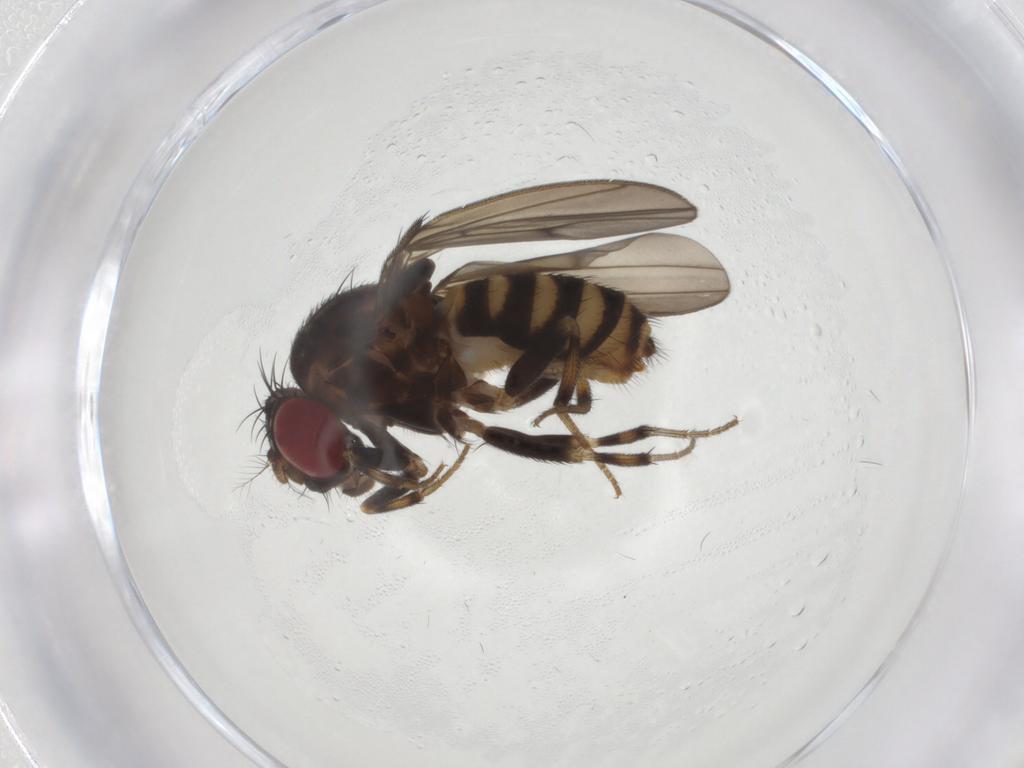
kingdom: Animalia
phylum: Arthropoda
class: Insecta
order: Diptera
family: Drosophilidae
